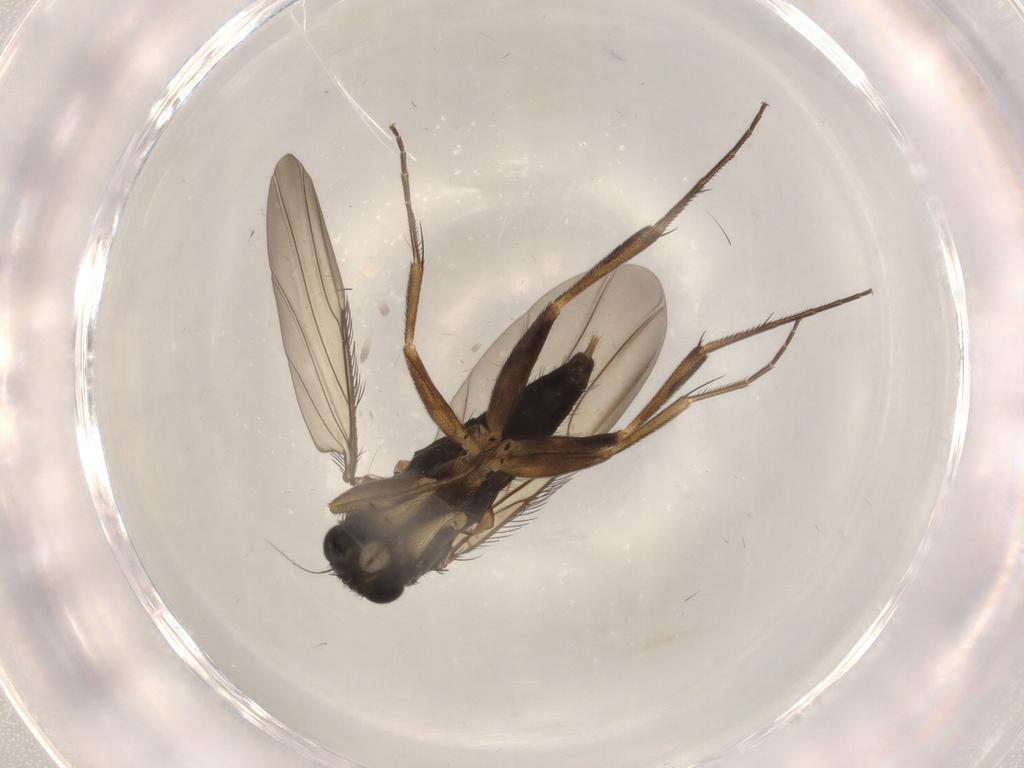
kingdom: Animalia
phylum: Arthropoda
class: Insecta
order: Diptera
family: Phoridae
